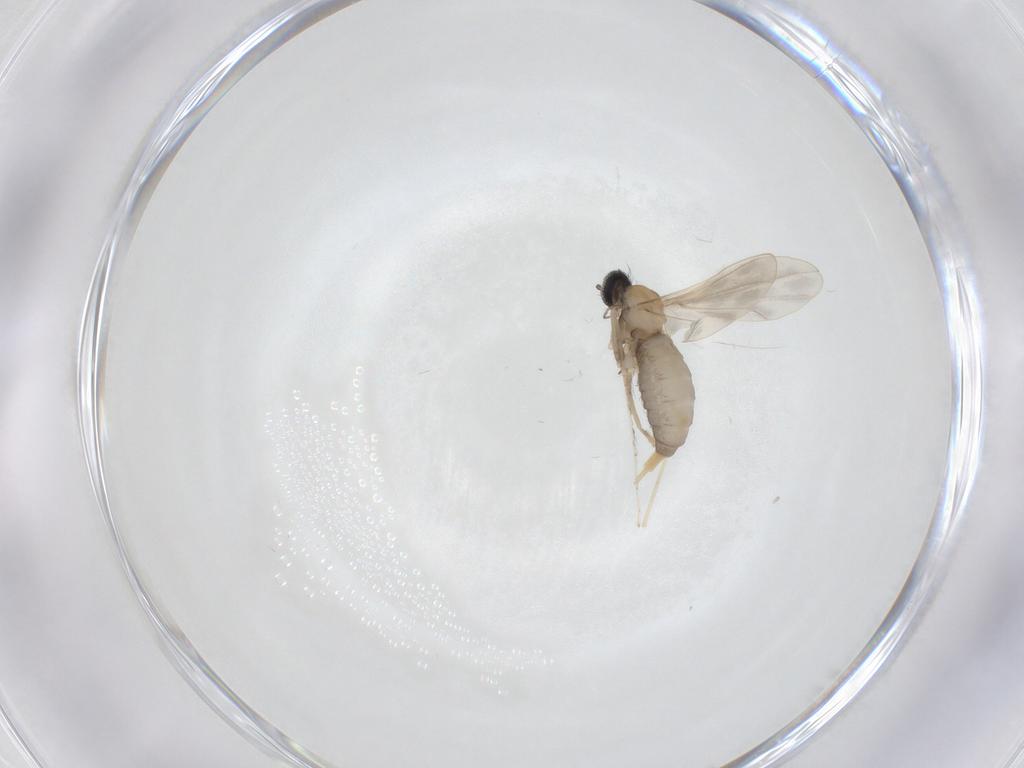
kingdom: Animalia
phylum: Arthropoda
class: Insecta
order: Diptera
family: Cecidomyiidae
